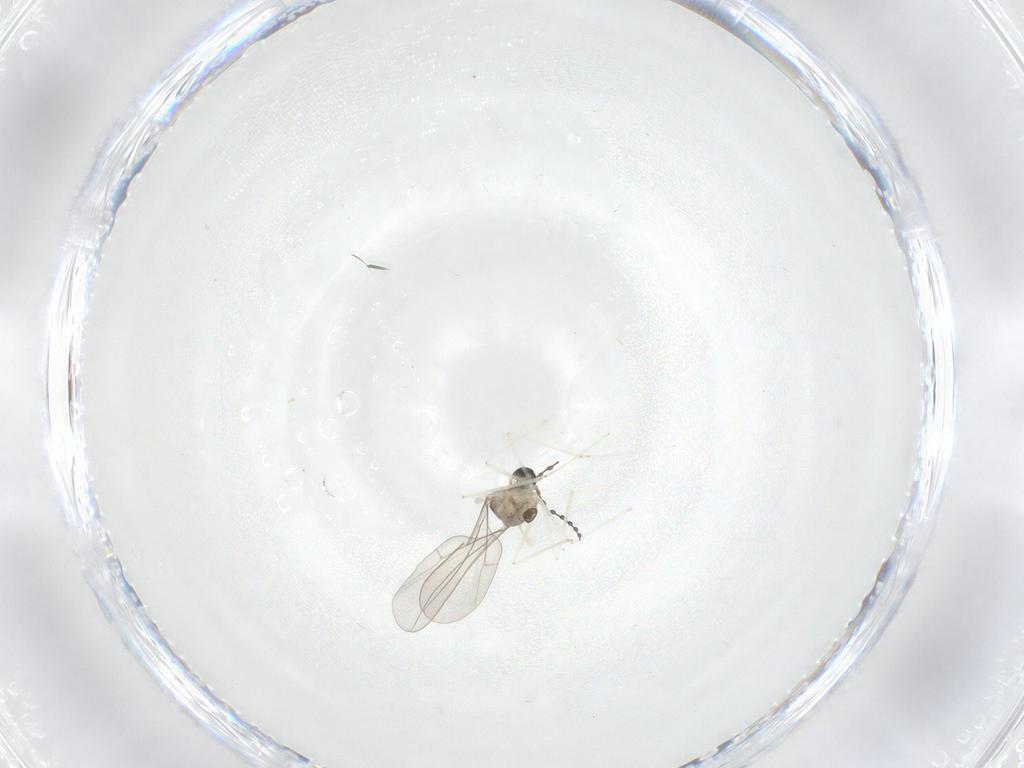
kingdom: Animalia
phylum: Arthropoda
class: Insecta
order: Diptera
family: Cecidomyiidae
